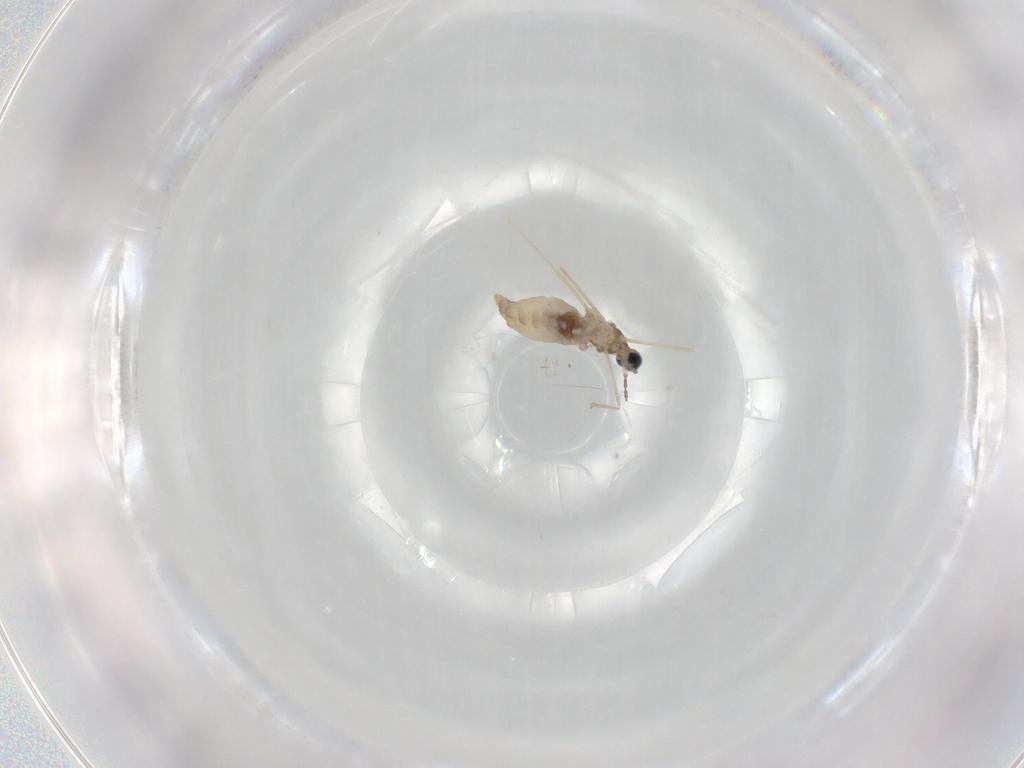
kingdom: Animalia
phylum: Arthropoda
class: Insecta
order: Diptera
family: Cecidomyiidae
